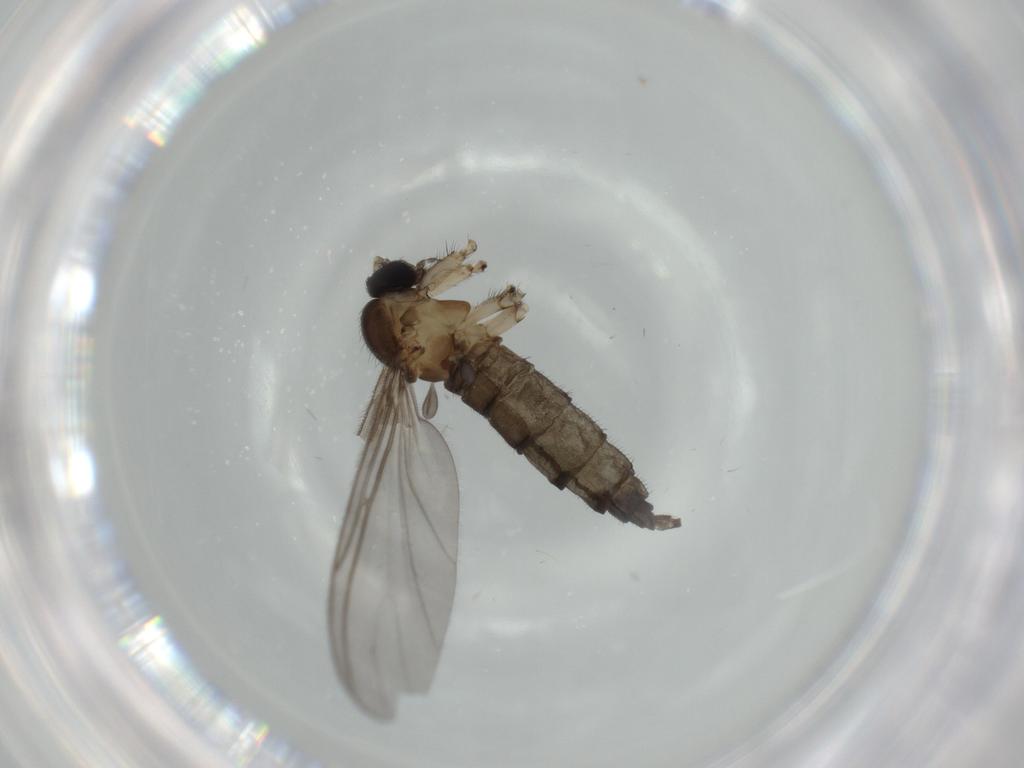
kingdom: Animalia
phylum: Arthropoda
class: Insecta
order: Diptera
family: Sciaridae
